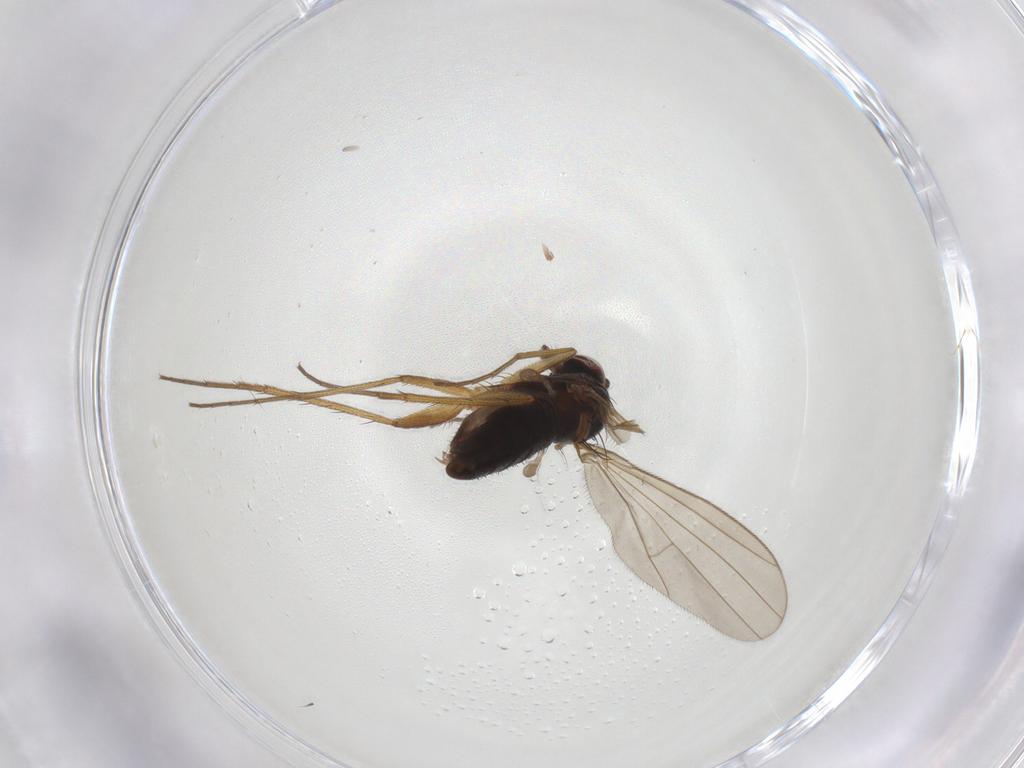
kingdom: Animalia
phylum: Arthropoda
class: Insecta
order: Diptera
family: Dolichopodidae
